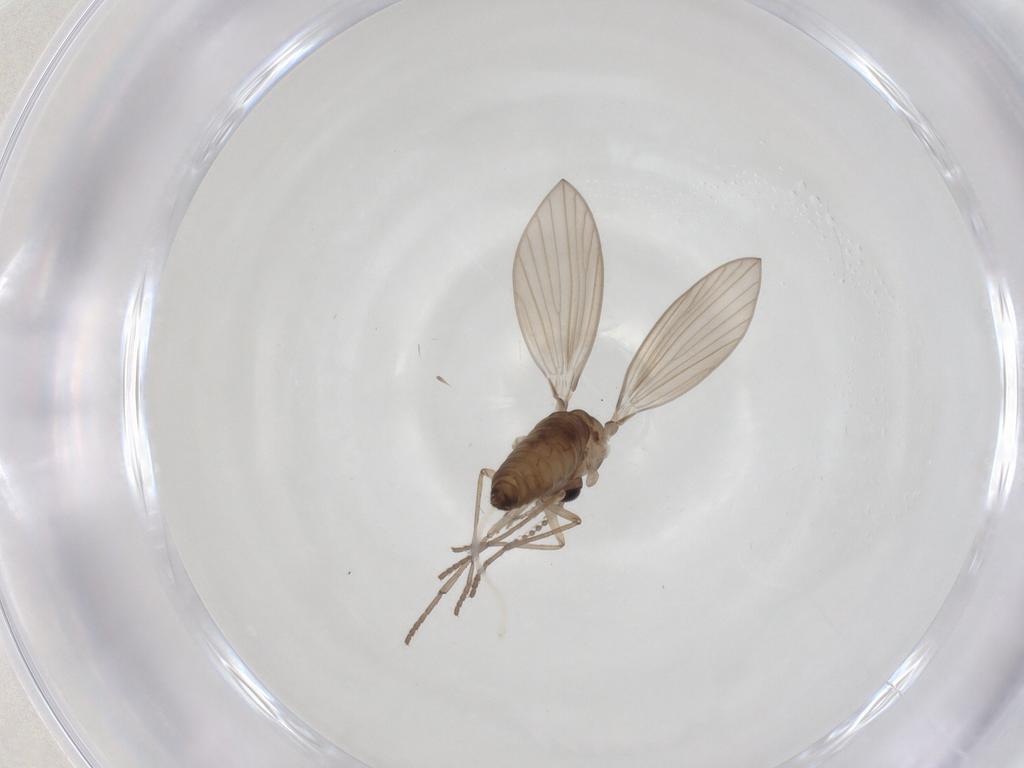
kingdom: Animalia
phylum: Arthropoda
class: Insecta
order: Diptera
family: Psychodidae
